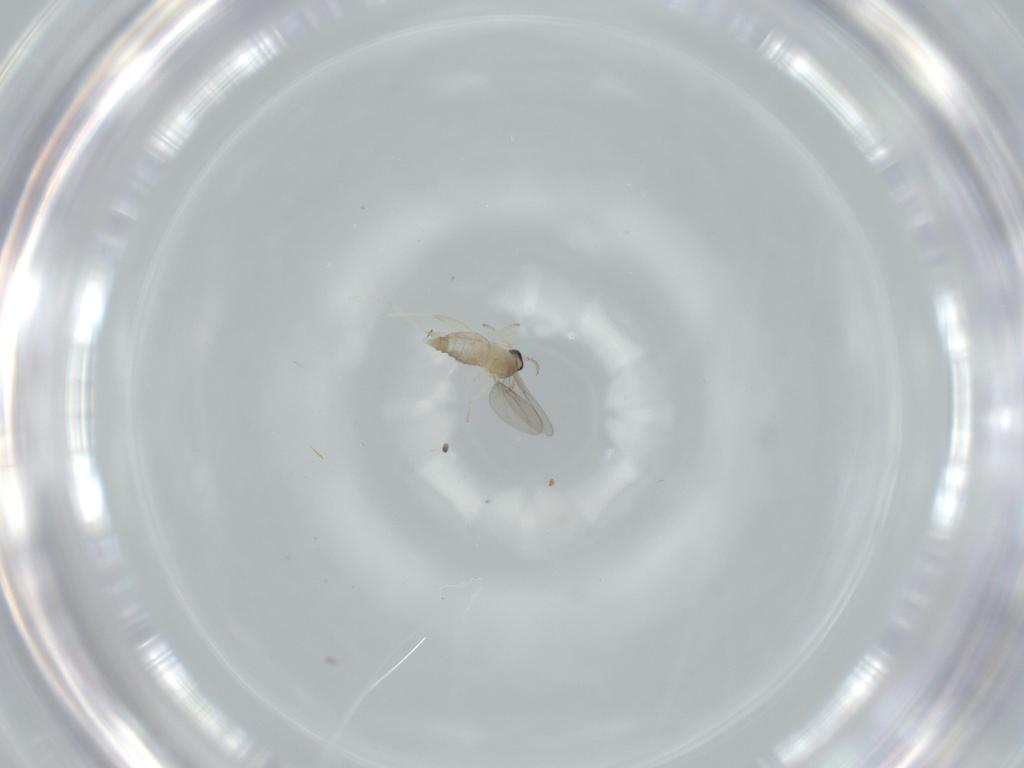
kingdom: Animalia
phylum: Arthropoda
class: Insecta
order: Diptera
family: Cecidomyiidae
